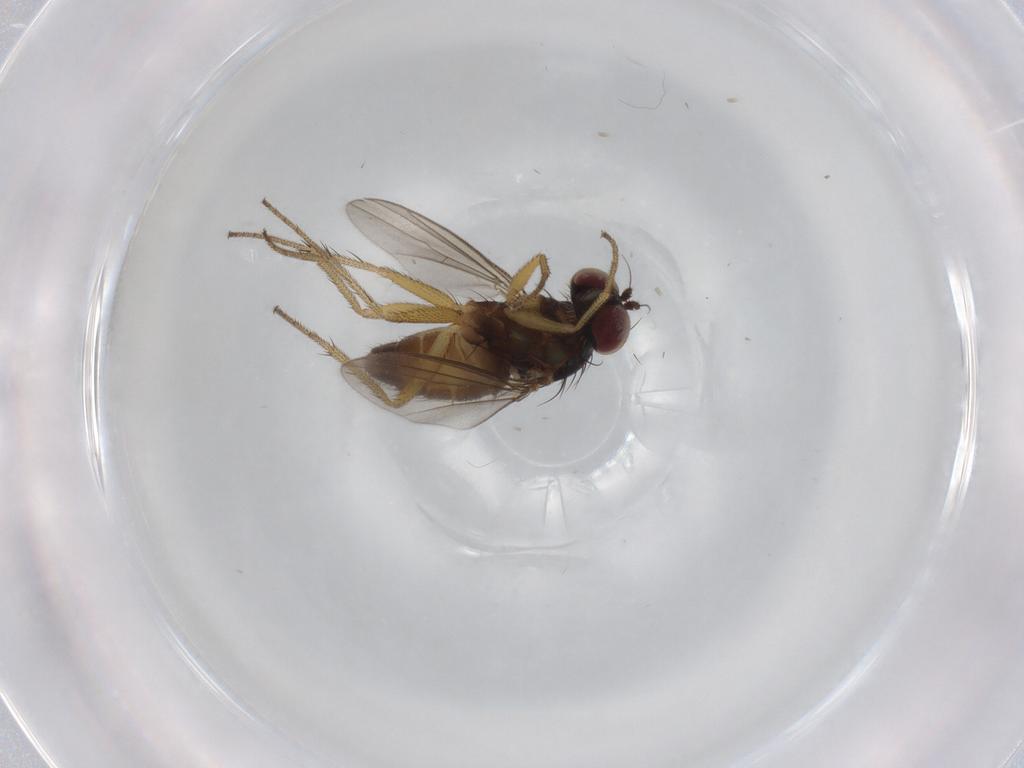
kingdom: Animalia
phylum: Arthropoda
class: Insecta
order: Diptera
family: Dolichopodidae
